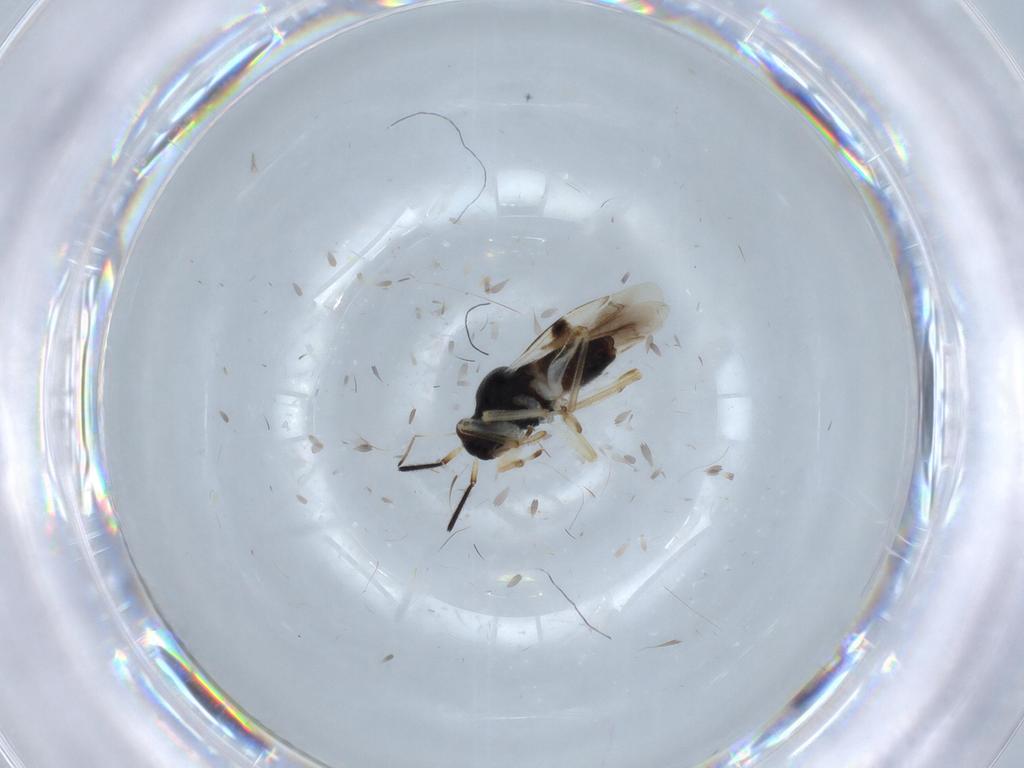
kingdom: Animalia
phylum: Arthropoda
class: Insecta
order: Hemiptera
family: Miridae
